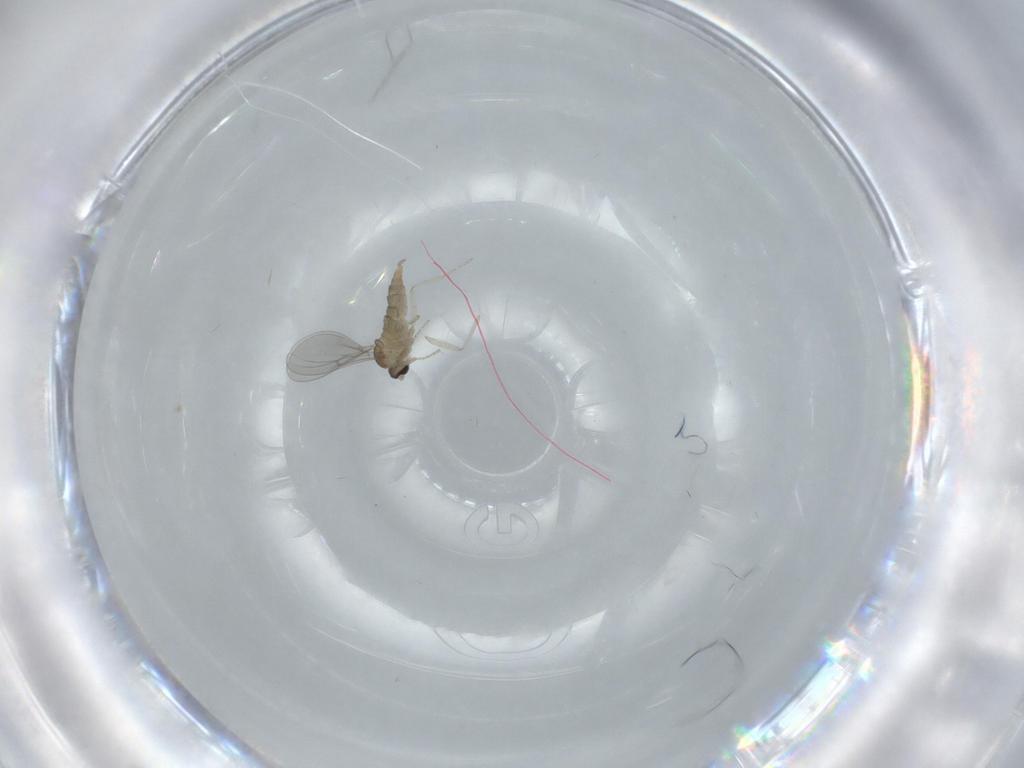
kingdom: Animalia
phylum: Arthropoda
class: Insecta
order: Diptera
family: Cecidomyiidae
